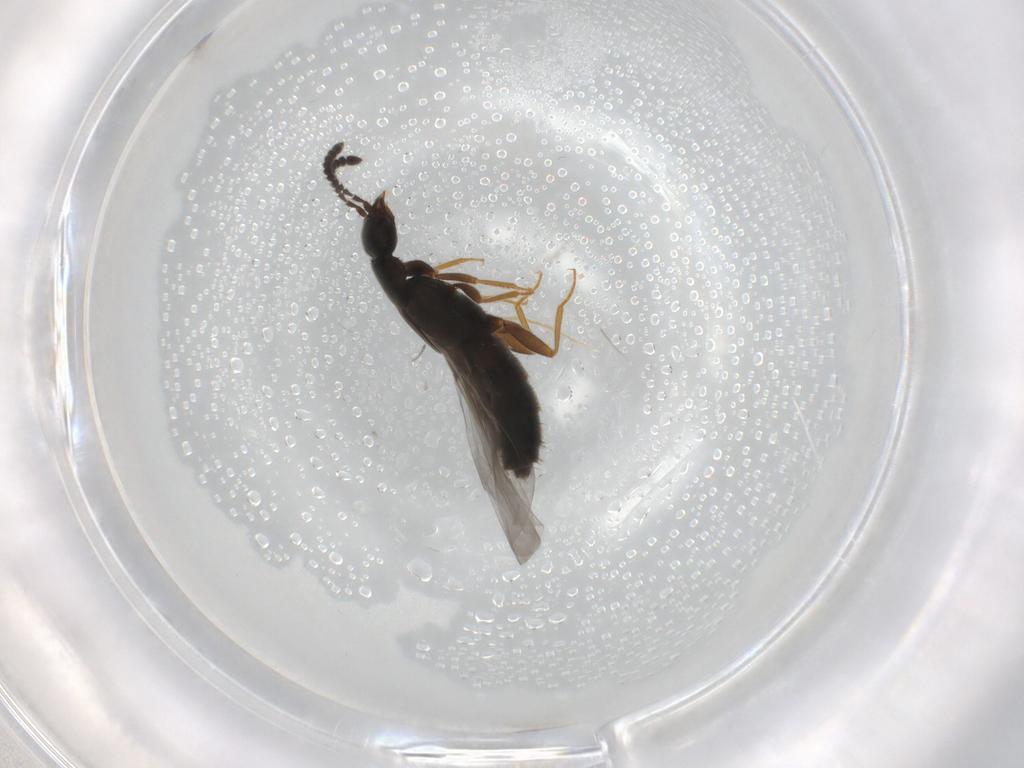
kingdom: Animalia
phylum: Arthropoda
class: Insecta
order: Coleoptera
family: Staphylinidae
